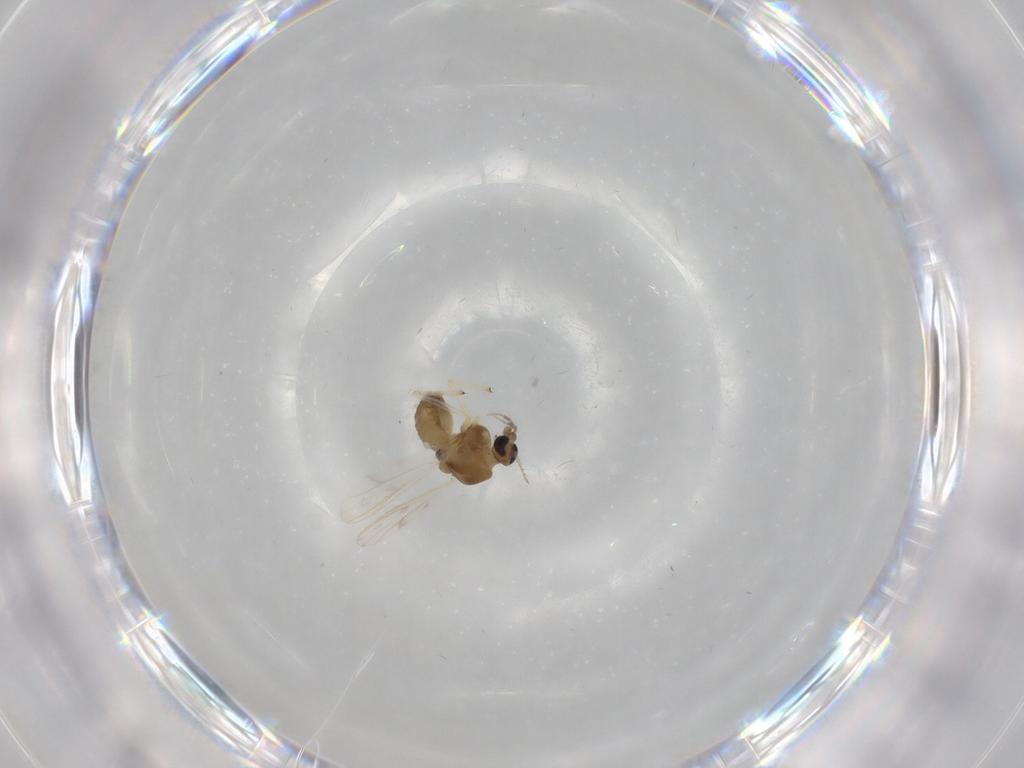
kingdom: Animalia
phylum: Arthropoda
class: Insecta
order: Diptera
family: Chironomidae
